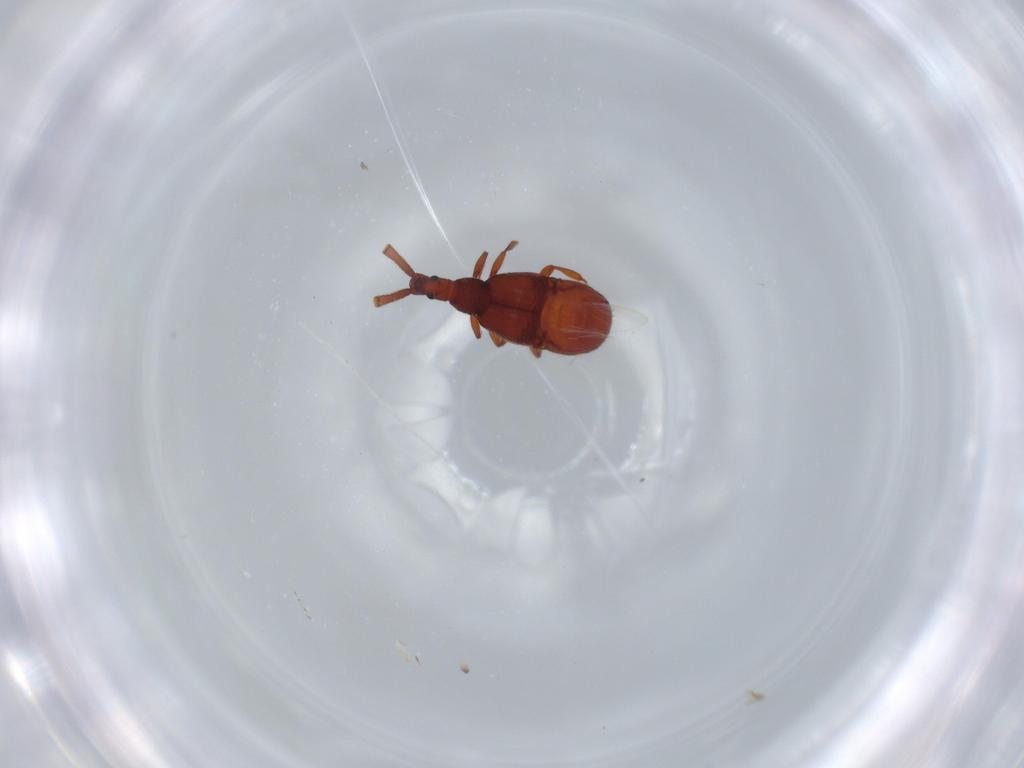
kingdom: Animalia
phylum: Arthropoda
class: Insecta
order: Coleoptera
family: Staphylinidae
